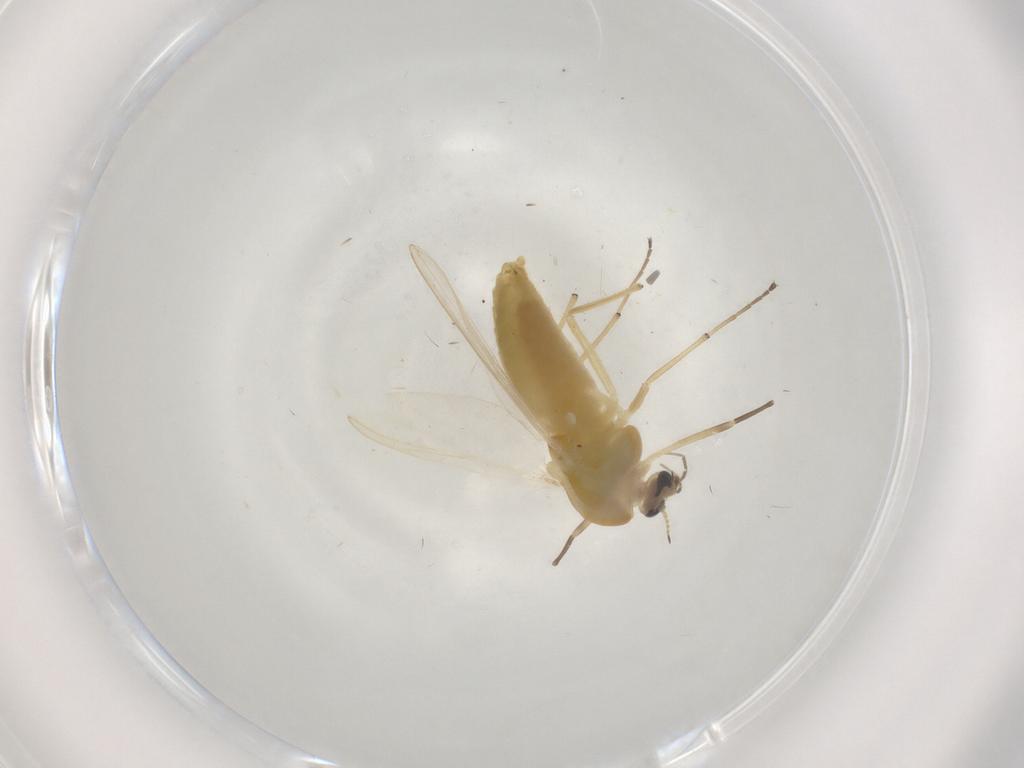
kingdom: Animalia
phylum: Arthropoda
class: Insecta
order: Diptera
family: Chironomidae
